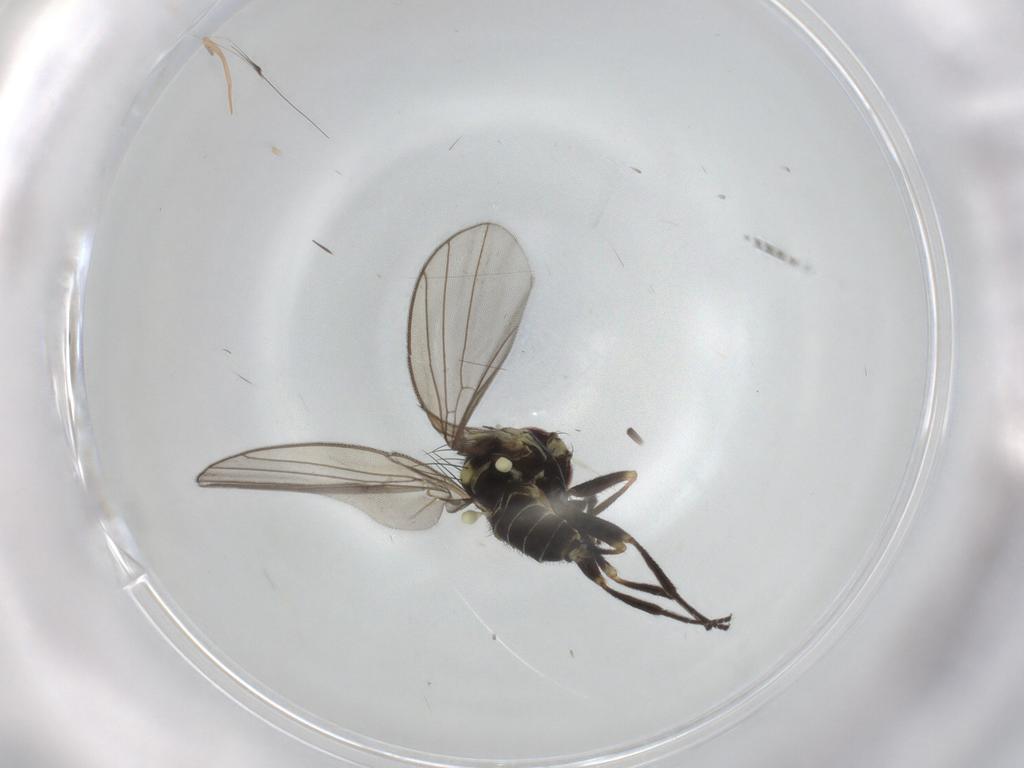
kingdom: Animalia
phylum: Arthropoda
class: Insecta
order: Diptera
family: Agromyzidae
